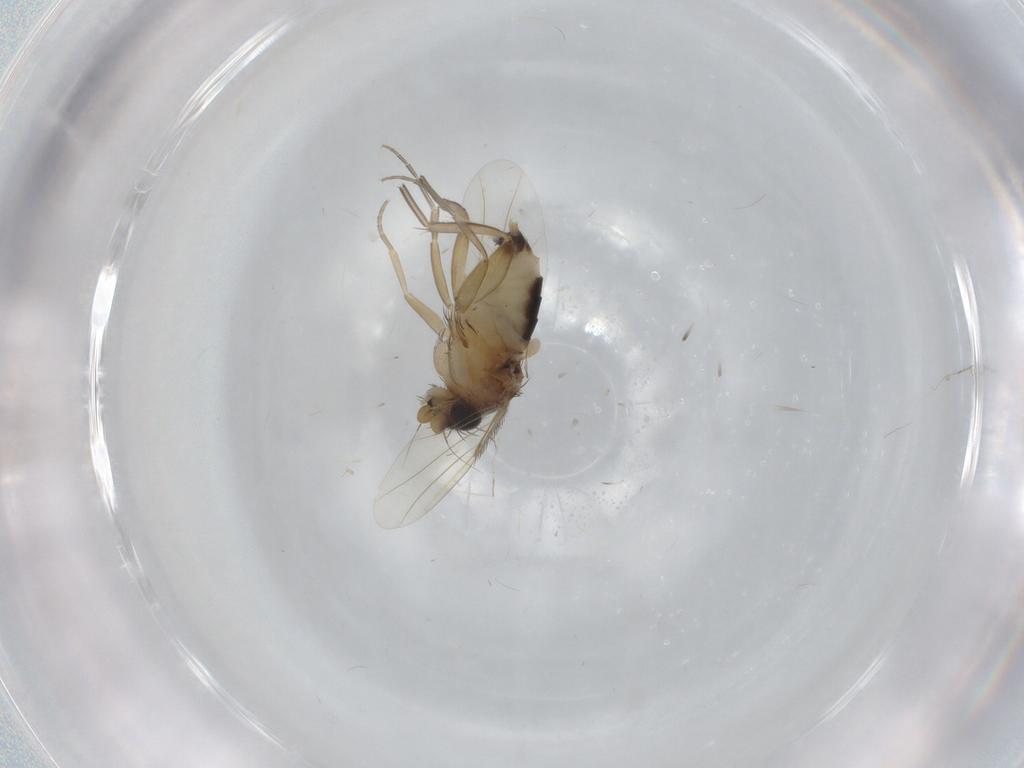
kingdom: Animalia
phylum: Arthropoda
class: Insecta
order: Diptera
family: Phoridae
